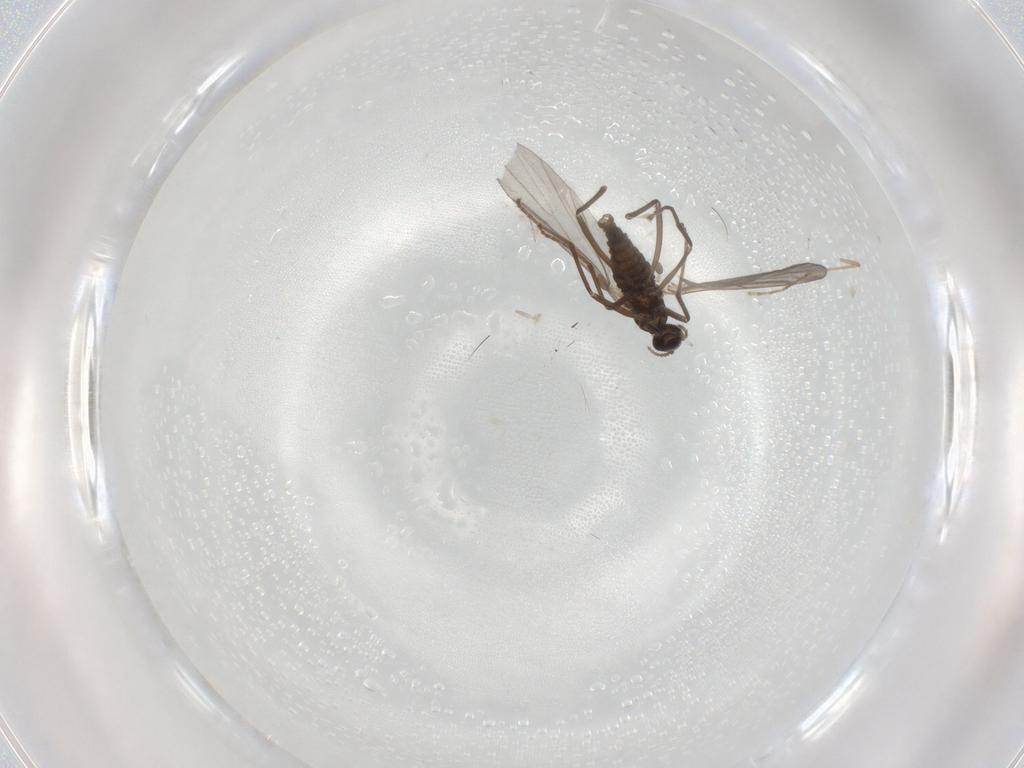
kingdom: Animalia
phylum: Arthropoda
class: Insecta
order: Diptera
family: Cecidomyiidae
